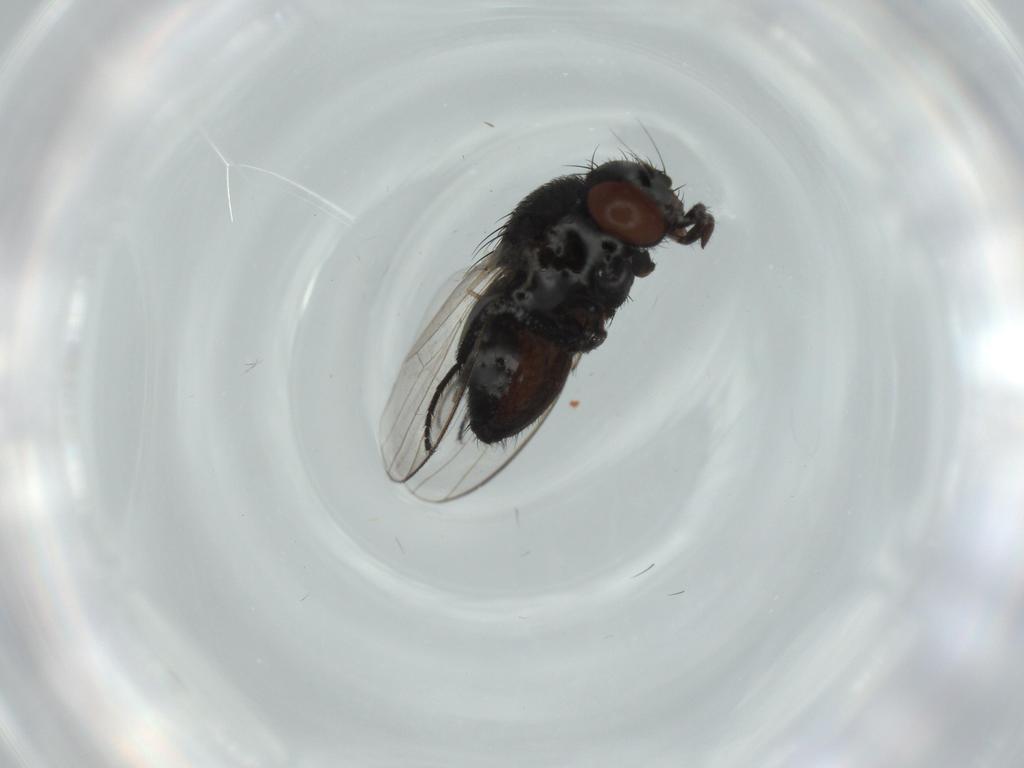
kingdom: Animalia
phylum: Arthropoda
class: Insecta
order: Diptera
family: Milichiidae
